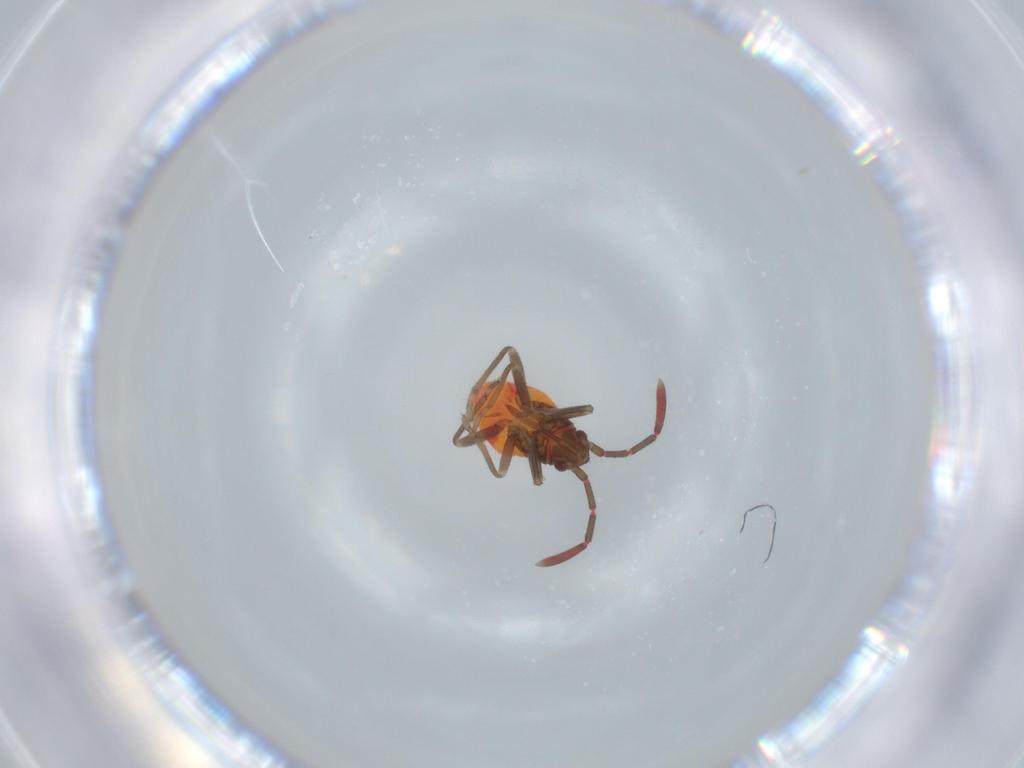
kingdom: Animalia
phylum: Arthropoda
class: Insecta
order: Hemiptera
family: Rhyparochromidae
